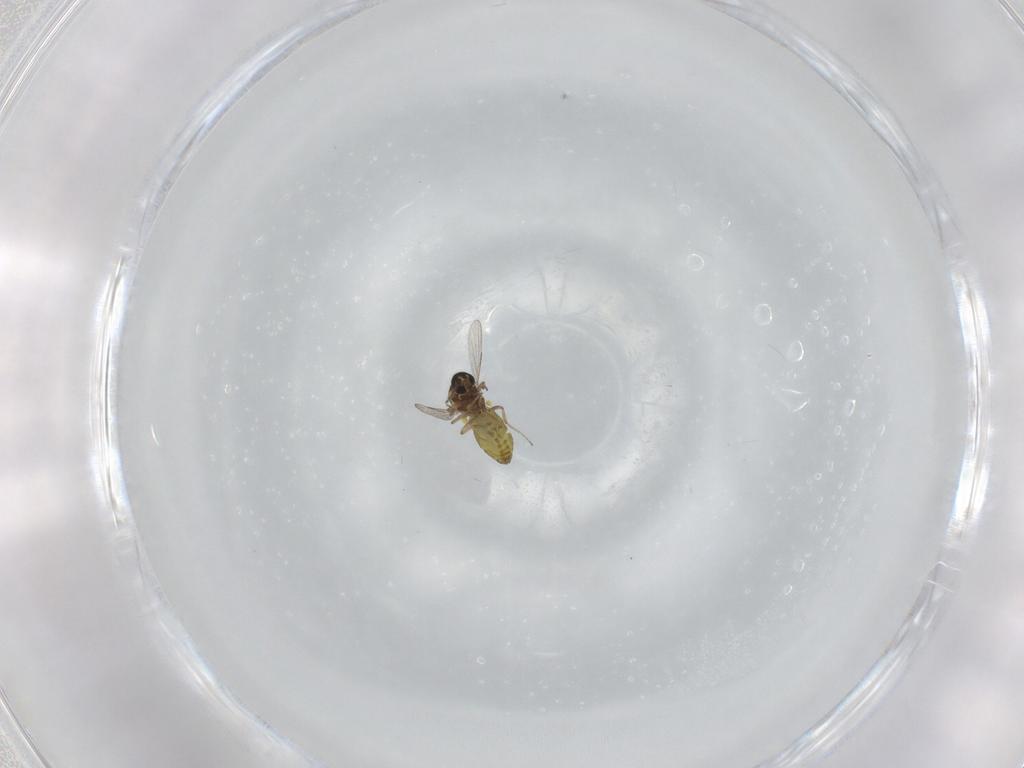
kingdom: Animalia
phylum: Arthropoda
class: Insecta
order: Diptera
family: Ceratopogonidae
